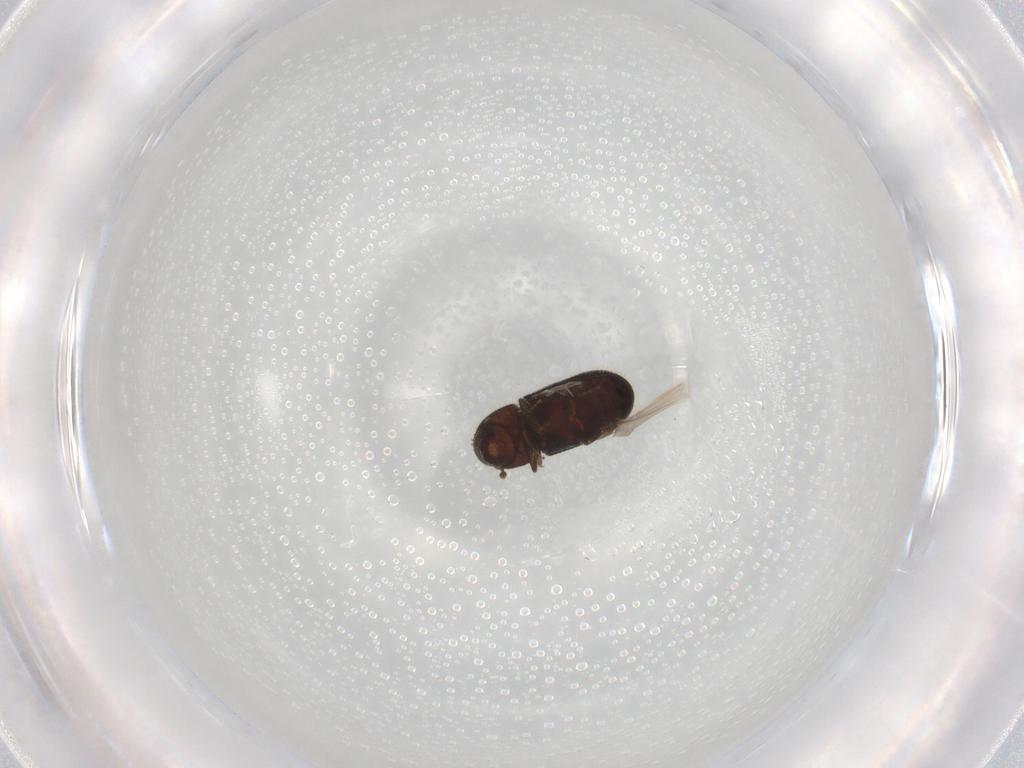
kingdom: Animalia
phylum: Arthropoda
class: Insecta
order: Coleoptera
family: Curculionidae
